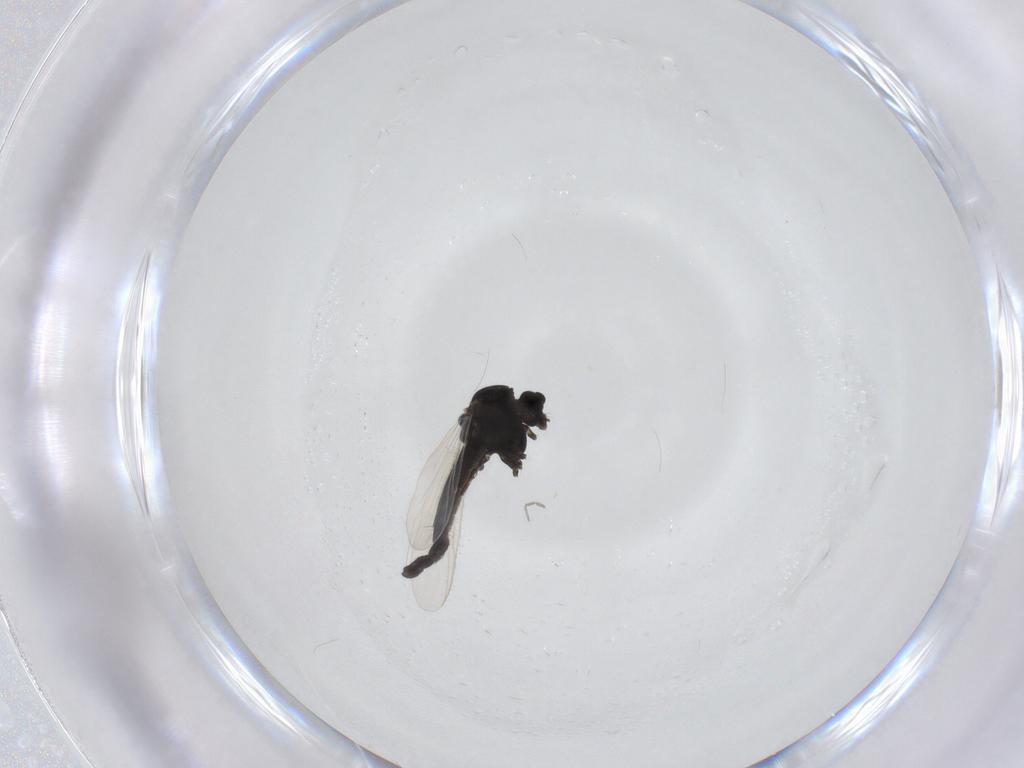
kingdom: Animalia
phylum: Arthropoda
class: Insecta
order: Diptera
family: Chironomidae
